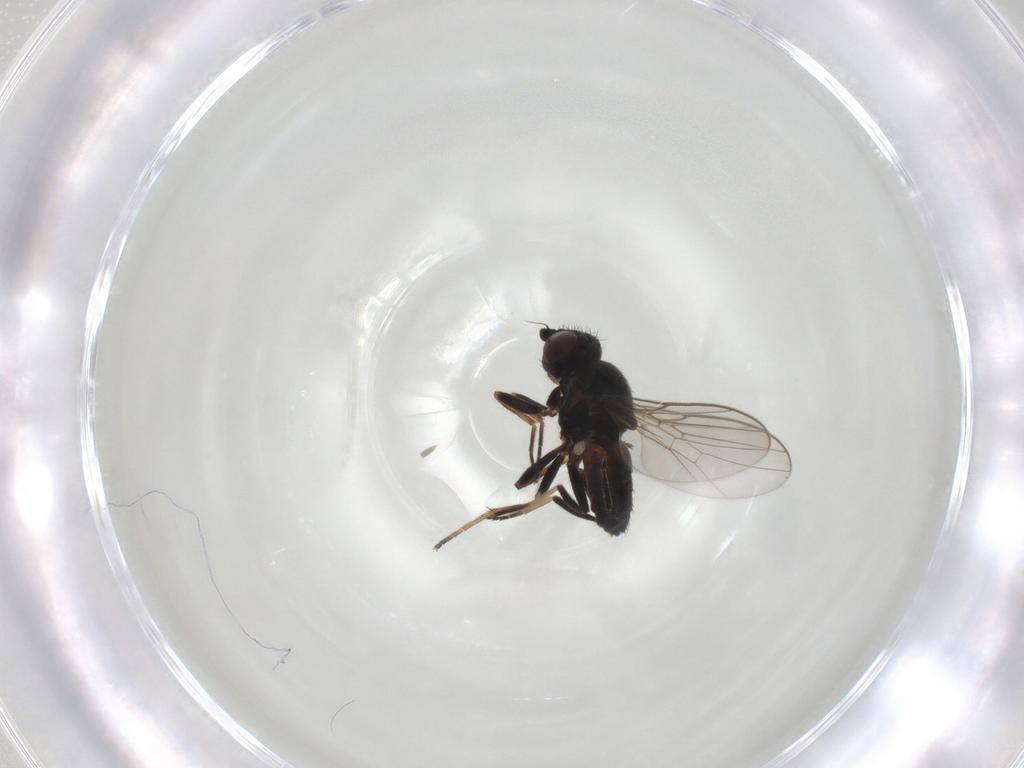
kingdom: Animalia
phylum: Arthropoda
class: Insecta
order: Diptera
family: Chloropidae
